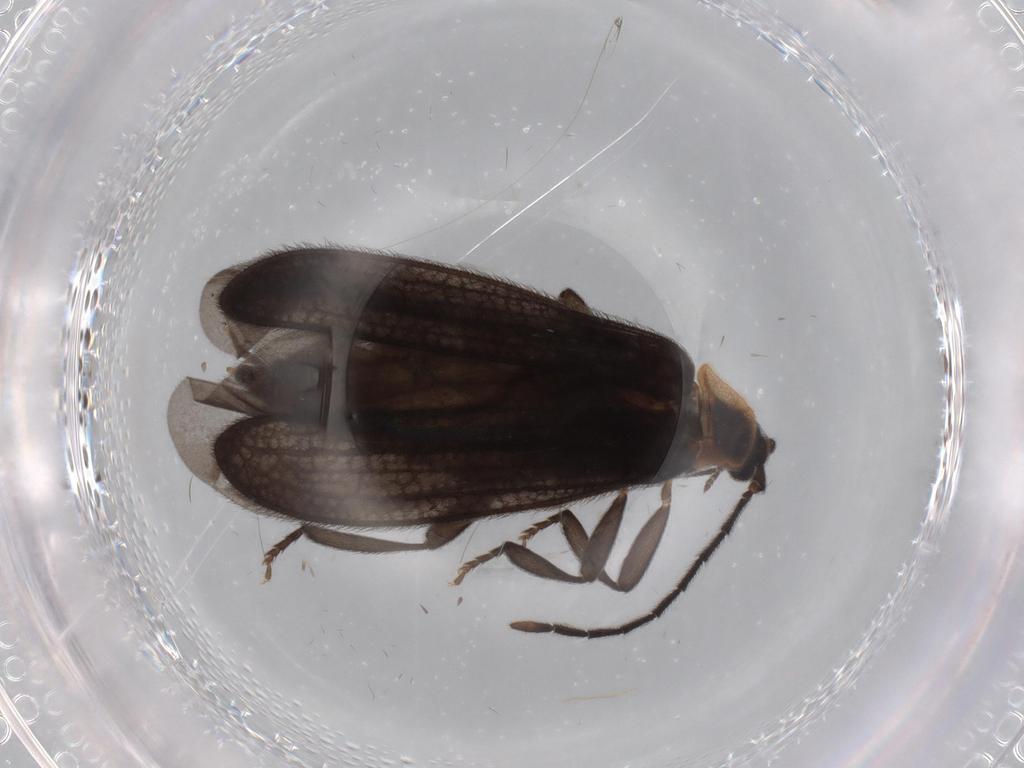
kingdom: Animalia
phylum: Arthropoda
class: Insecta
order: Coleoptera
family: Lycidae
